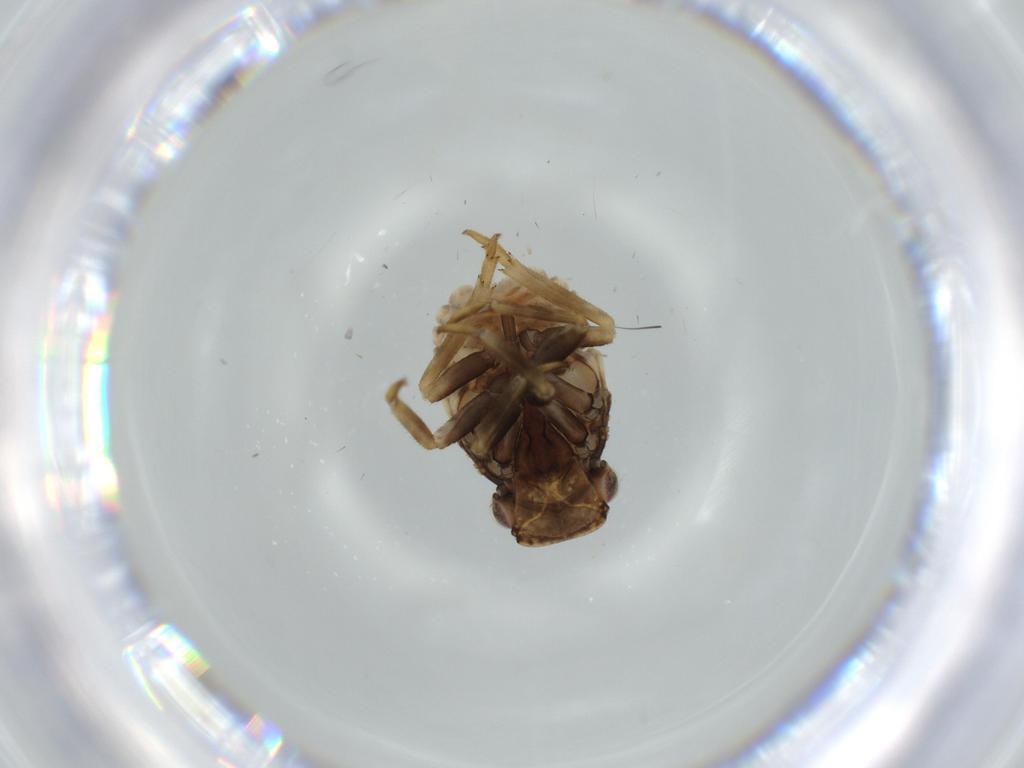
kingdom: Animalia
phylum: Arthropoda
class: Insecta
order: Hemiptera
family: Fulgoroidea_incertae_sedis
